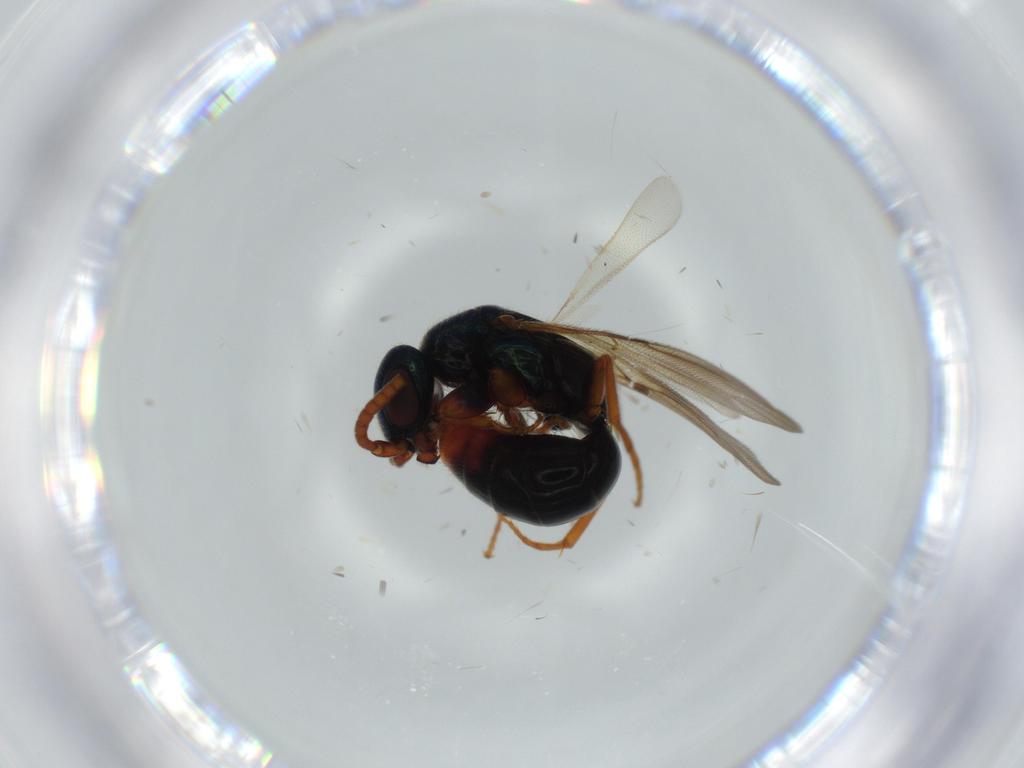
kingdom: Animalia
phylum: Arthropoda
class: Insecta
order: Hymenoptera
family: Bethylidae
